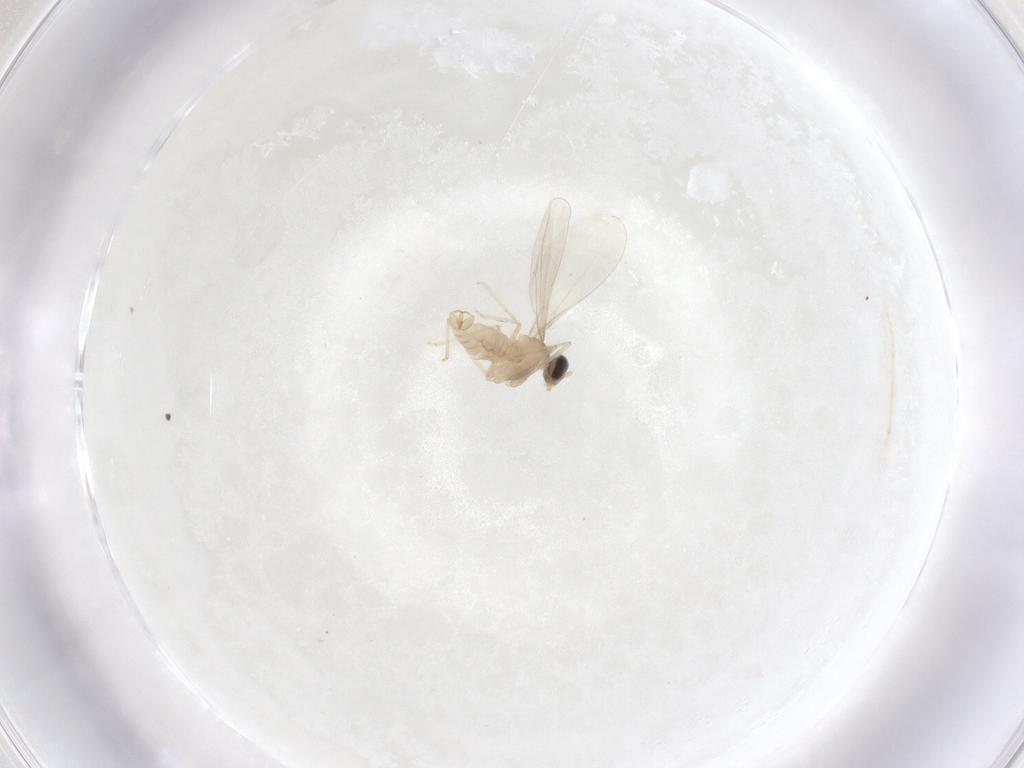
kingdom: Animalia
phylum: Arthropoda
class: Insecta
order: Diptera
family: Cecidomyiidae
